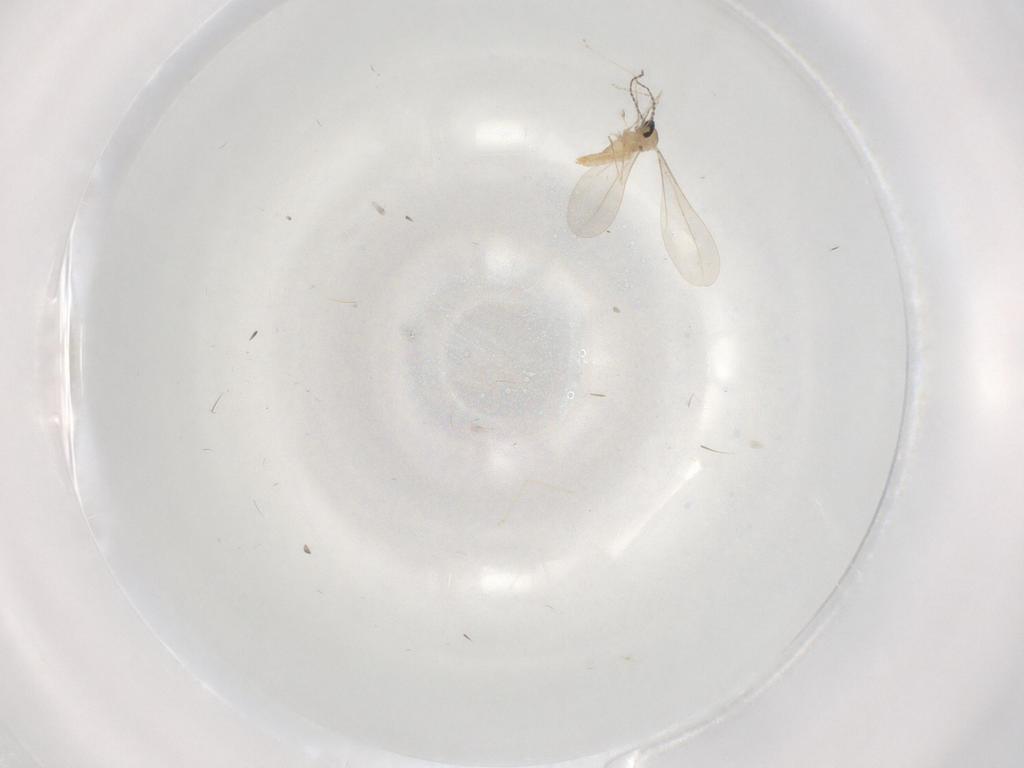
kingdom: Animalia
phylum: Arthropoda
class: Insecta
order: Diptera
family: Cecidomyiidae
